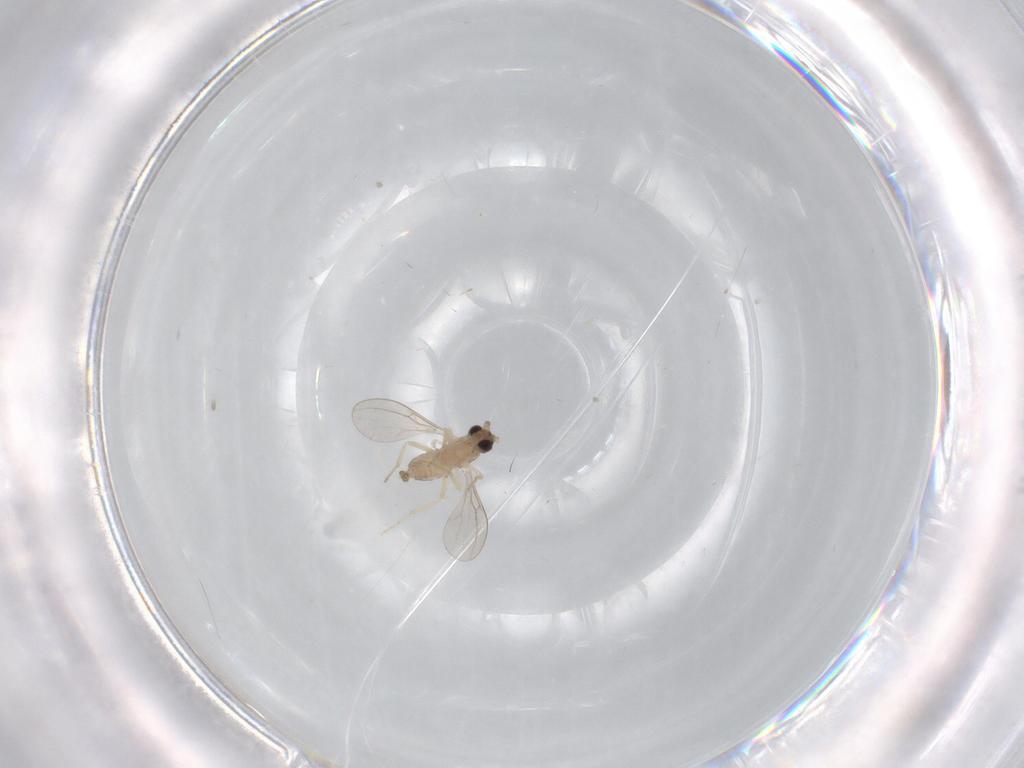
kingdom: Animalia
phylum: Arthropoda
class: Insecta
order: Diptera
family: Cecidomyiidae
